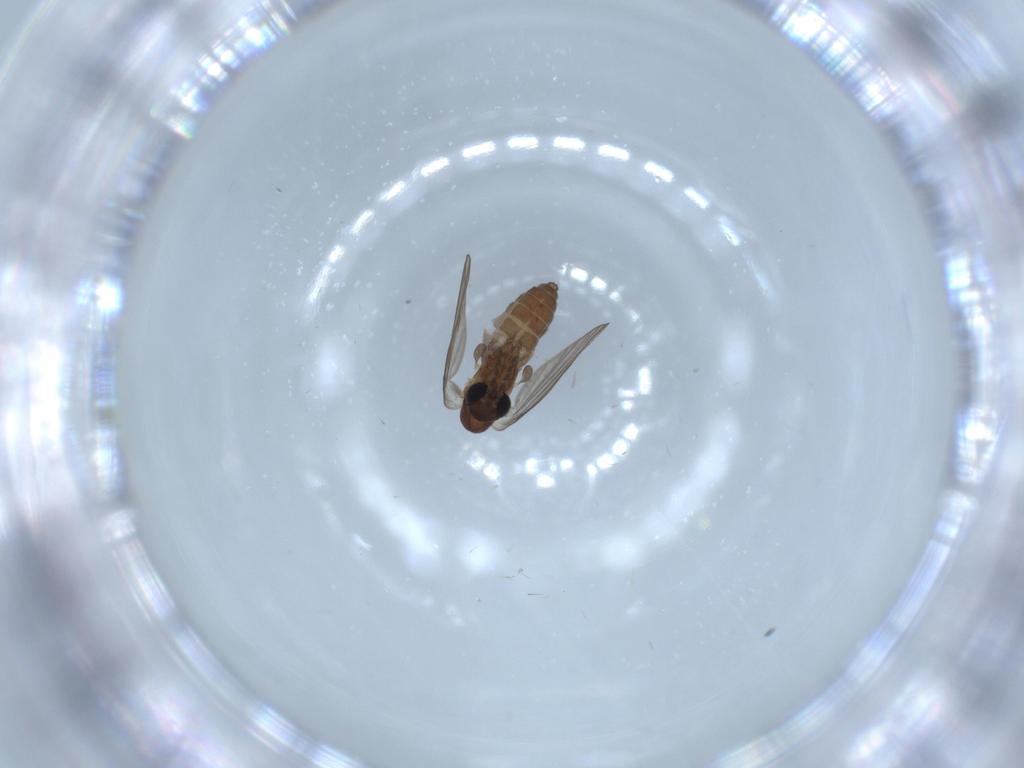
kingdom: Animalia
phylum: Arthropoda
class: Insecta
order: Diptera
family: Psychodidae
